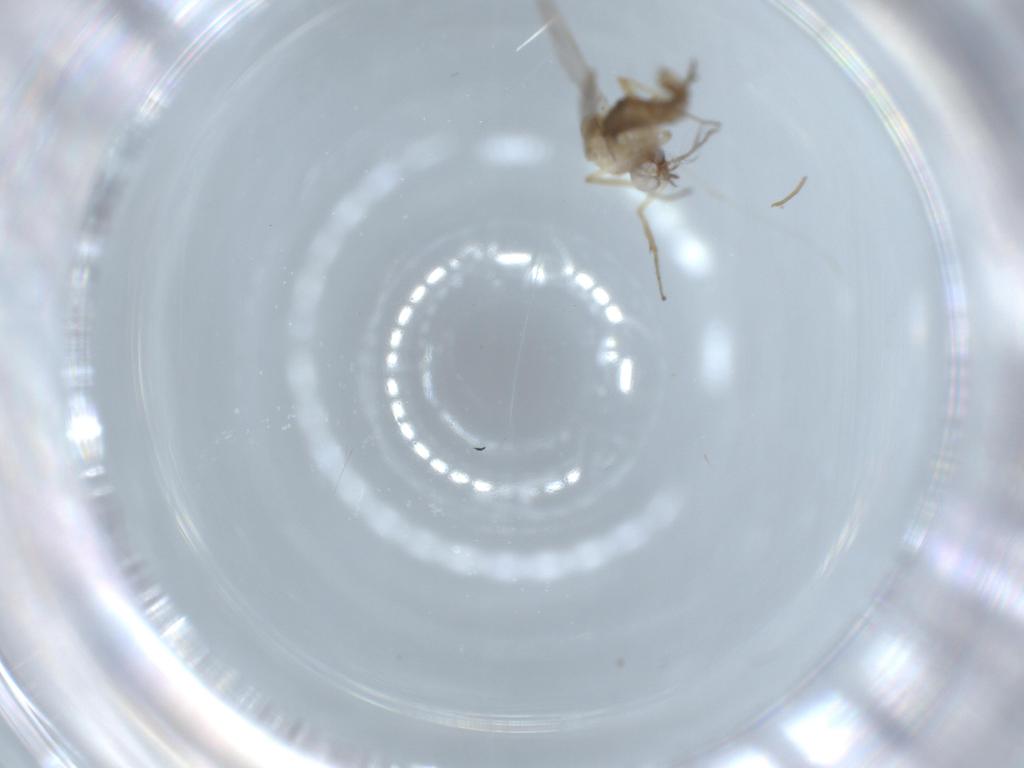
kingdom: Animalia
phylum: Arthropoda
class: Insecta
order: Diptera
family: Ceratopogonidae
